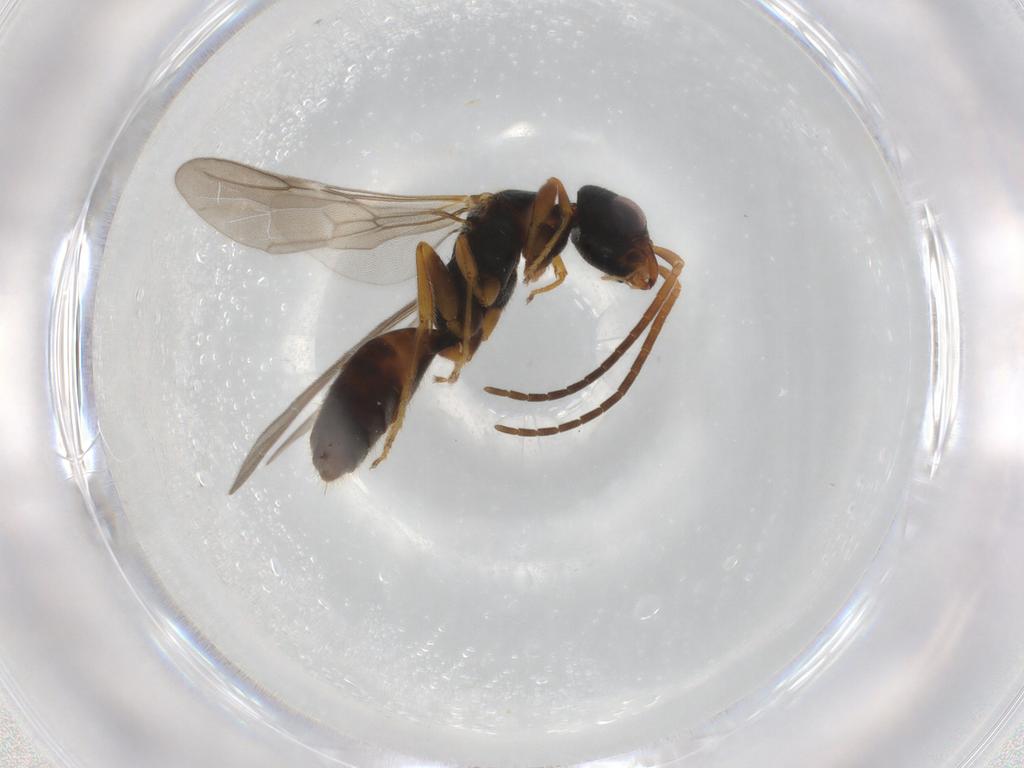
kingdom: Animalia
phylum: Arthropoda
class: Insecta
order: Hymenoptera
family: Bethylidae
